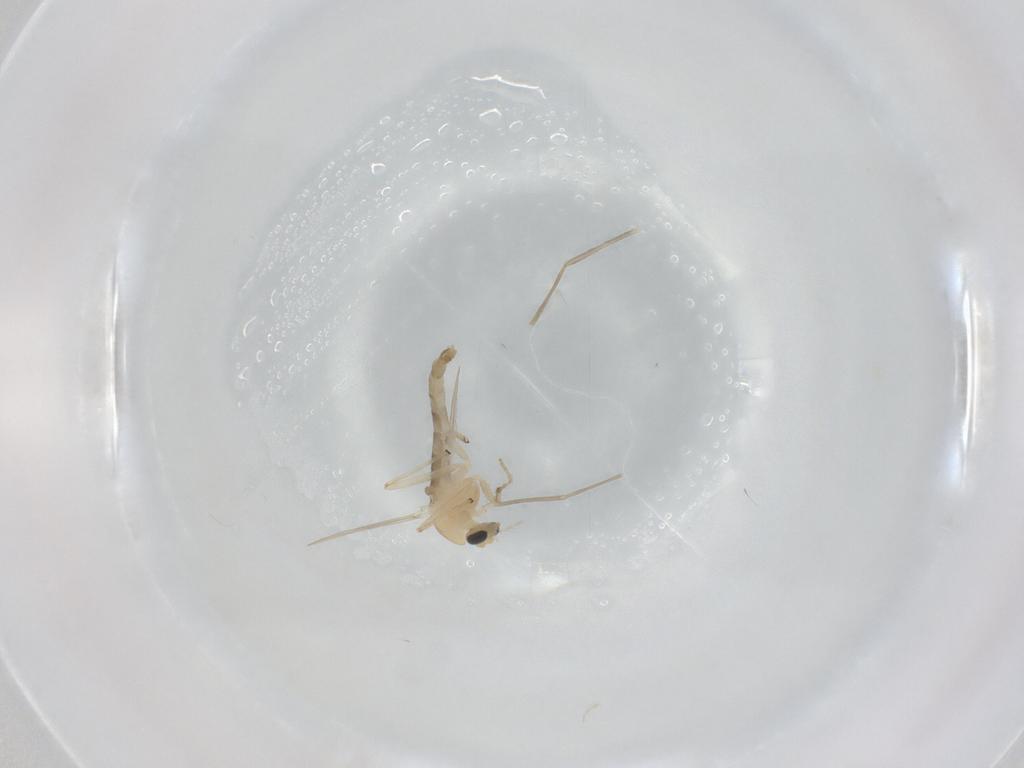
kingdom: Animalia
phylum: Arthropoda
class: Insecta
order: Diptera
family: Chironomidae
